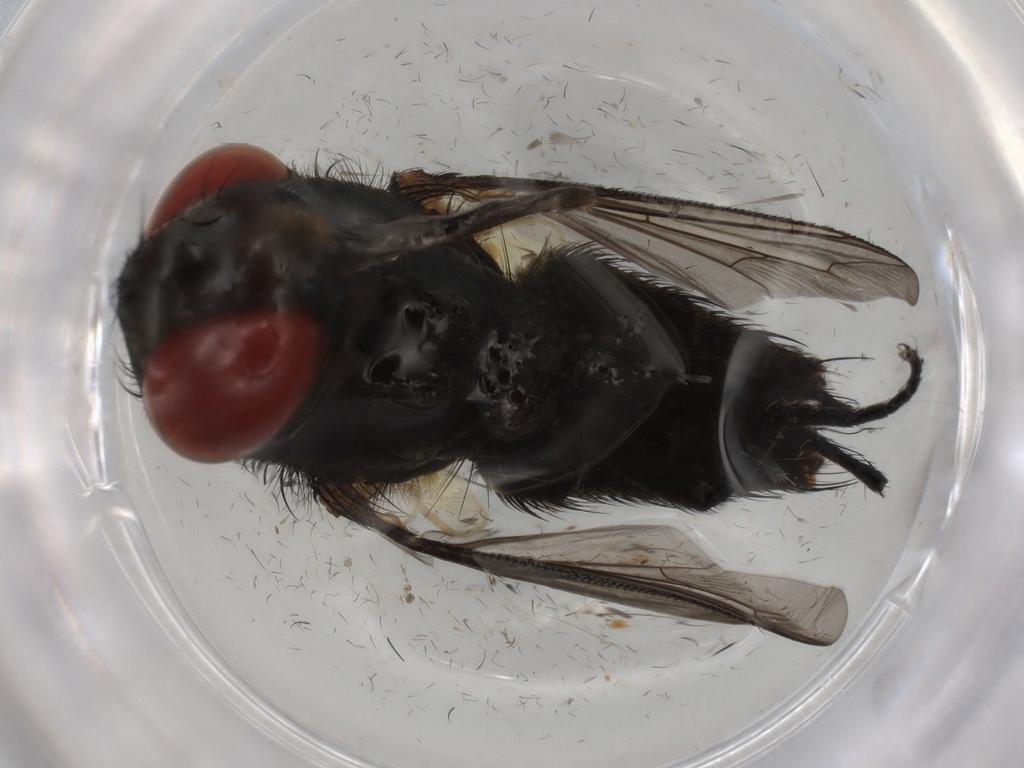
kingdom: Animalia
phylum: Arthropoda
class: Insecta
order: Diptera
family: Sarcophagidae
